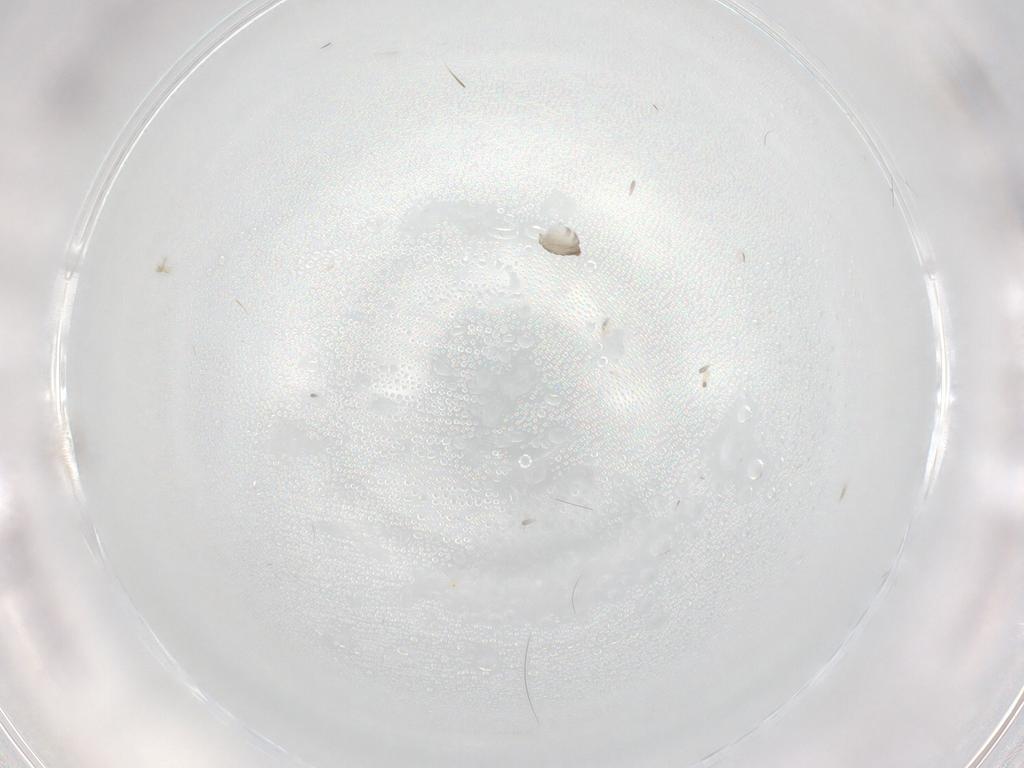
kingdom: Animalia
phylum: Arthropoda
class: Insecta
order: Diptera
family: Cecidomyiidae
